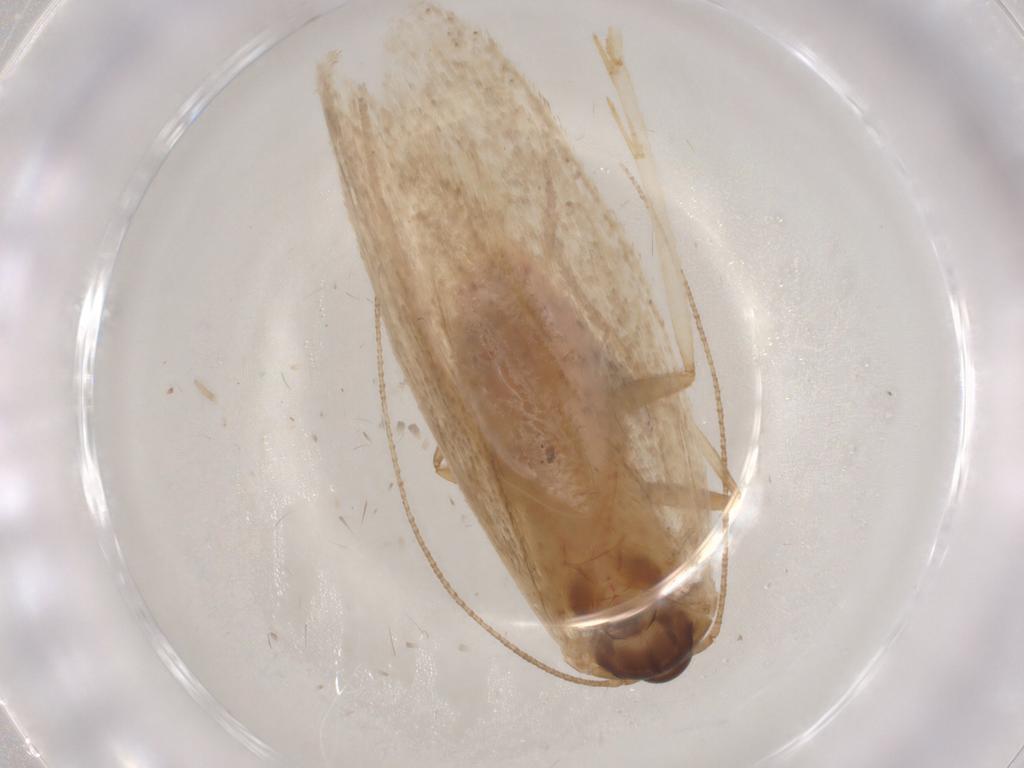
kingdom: Animalia
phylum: Arthropoda
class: Insecta
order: Lepidoptera
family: Autostichidae
